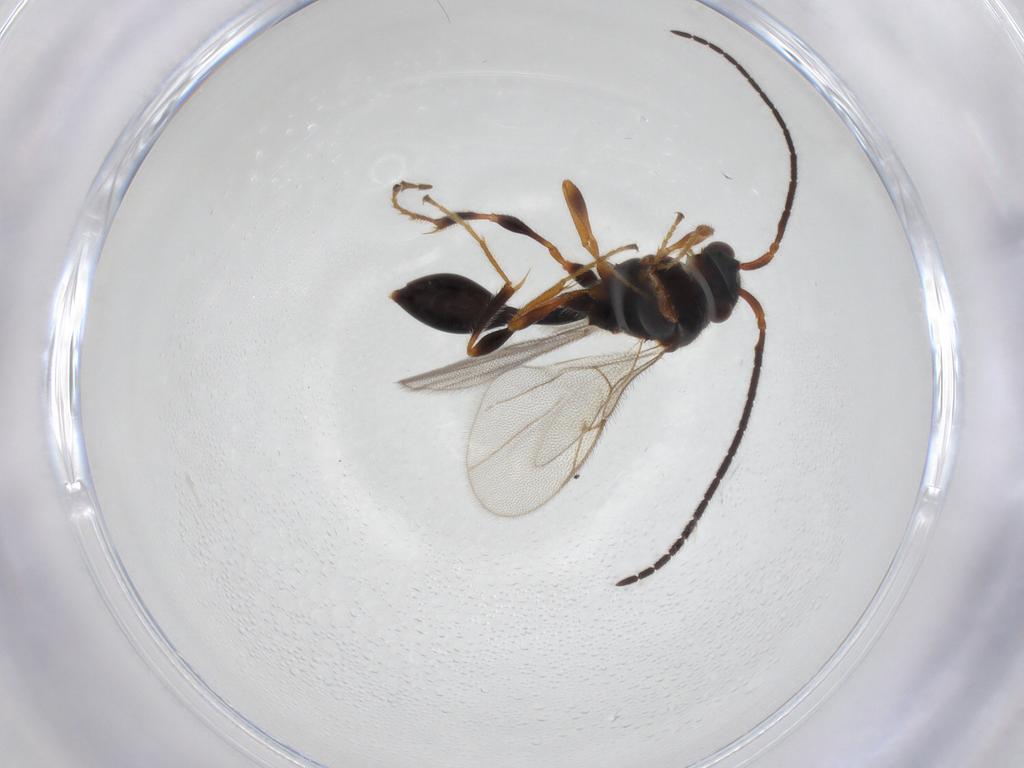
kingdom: Animalia
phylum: Arthropoda
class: Insecta
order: Hymenoptera
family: Diapriidae
